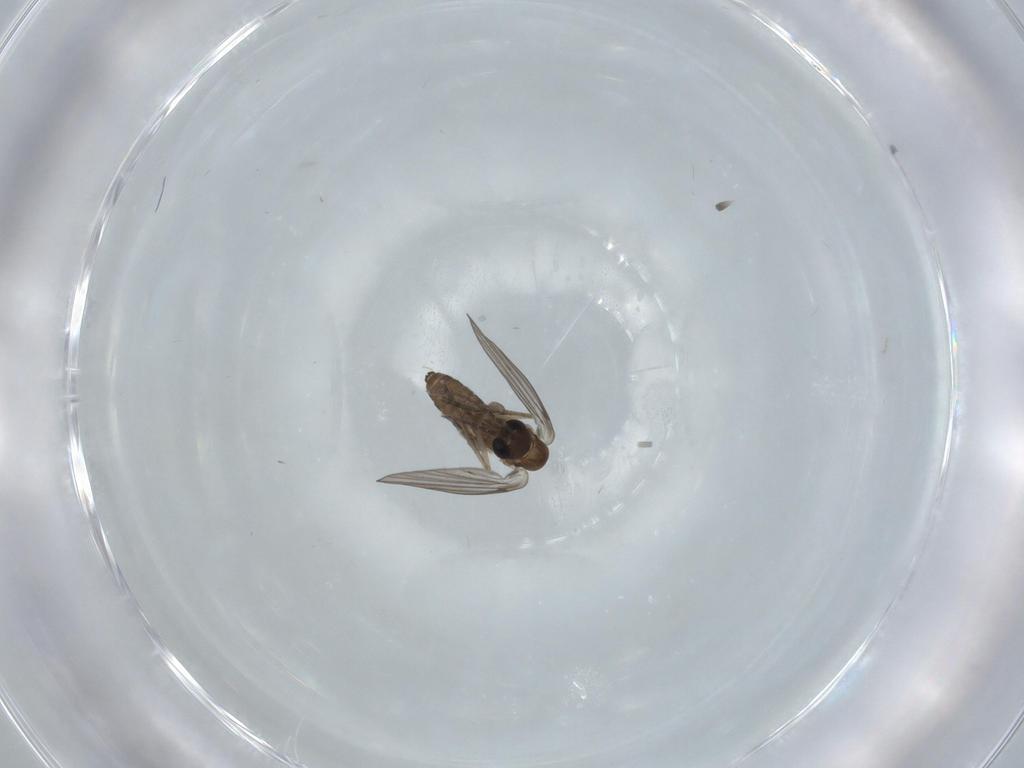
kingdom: Animalia
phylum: Arthropoda
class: Insecta
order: Diptera
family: Psychodidae
